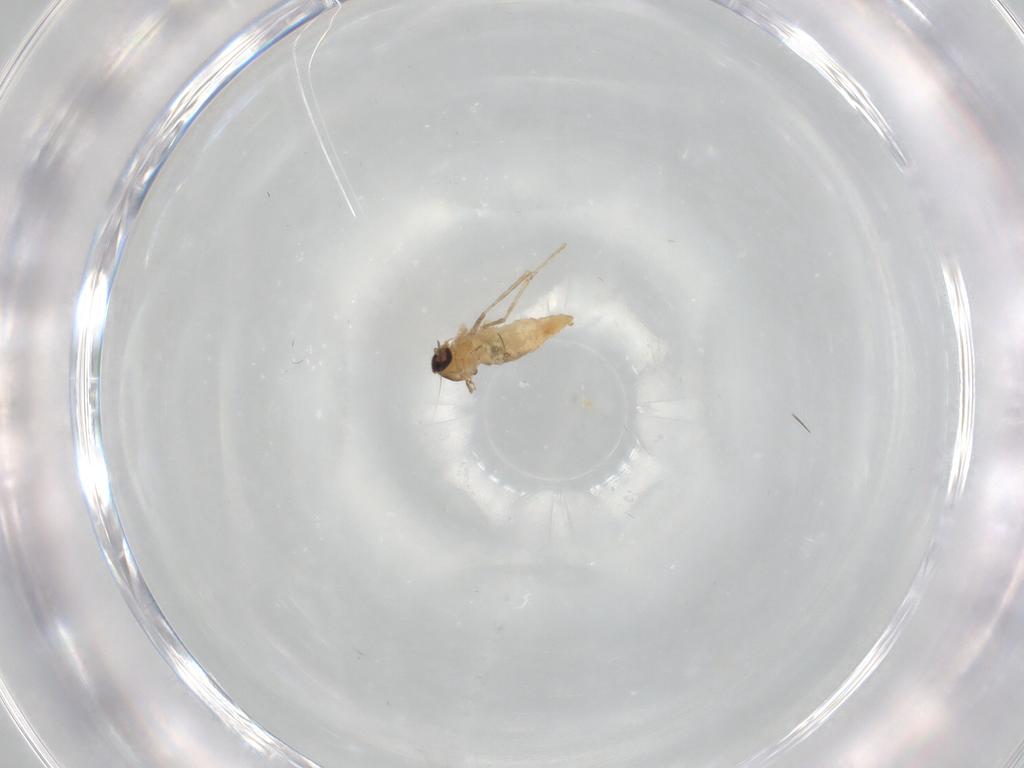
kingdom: Animalia
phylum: Arthropoda
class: Insecta
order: Diptera
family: Cecidomyiidae
